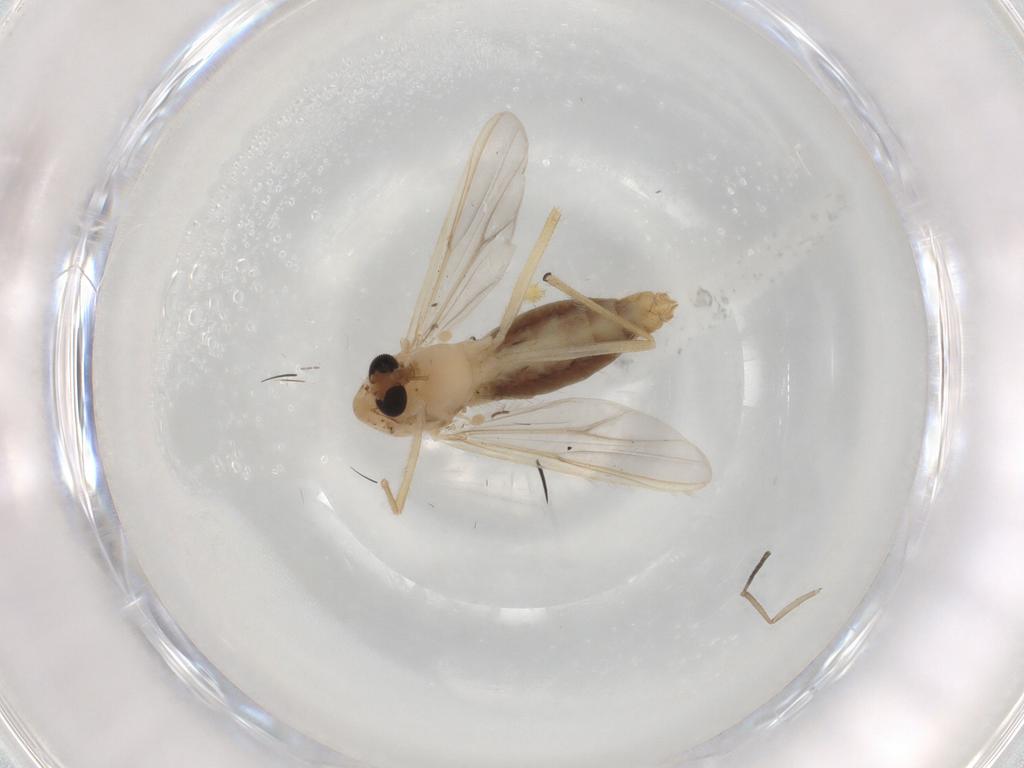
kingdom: Animalia
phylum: Arthropoda
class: Insecta
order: Diptera
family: Chironomidae
